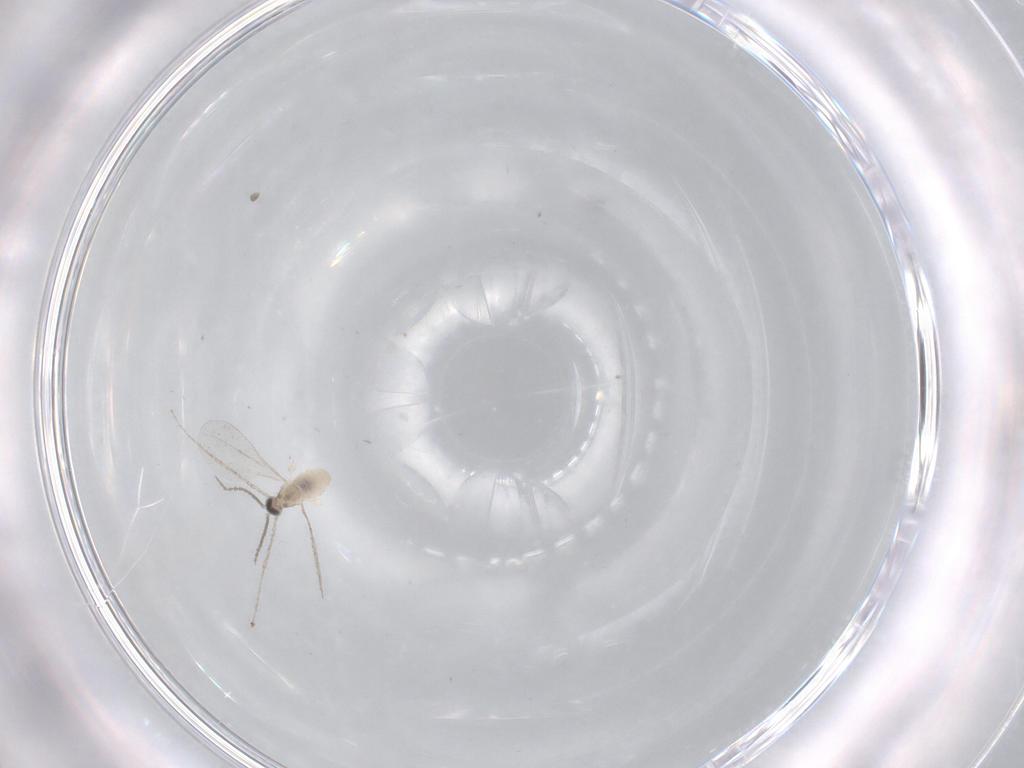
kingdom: Animalia
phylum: Arthropoda
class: Insecta
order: Diptera
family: Cecidomyiidae
